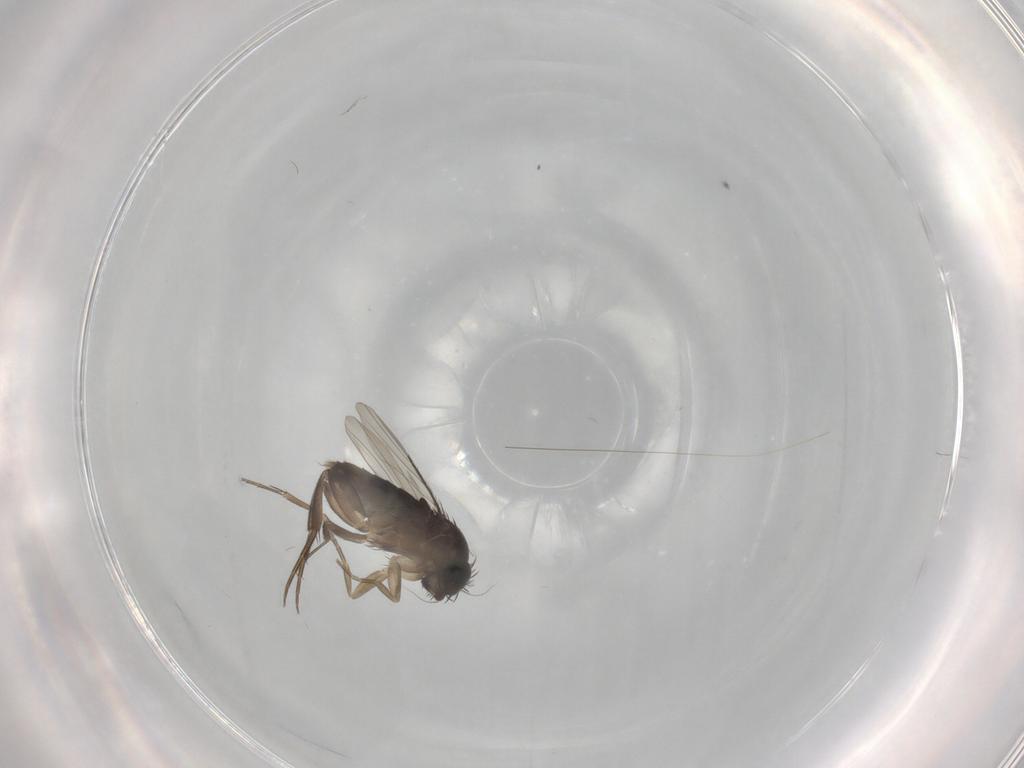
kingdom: Animalia
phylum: Arthropoda
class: Insecta
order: Diptera
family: Phoridae
